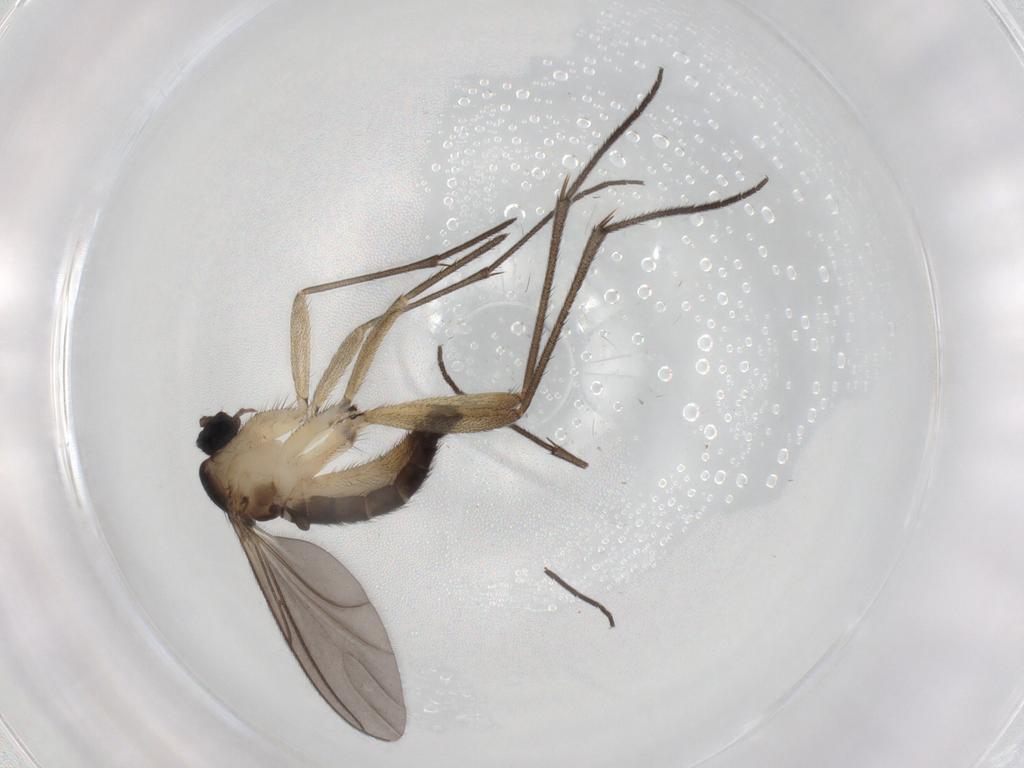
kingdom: Animalia
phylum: Arthropoda
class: Insecta
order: Diptera
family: Sciaridae
